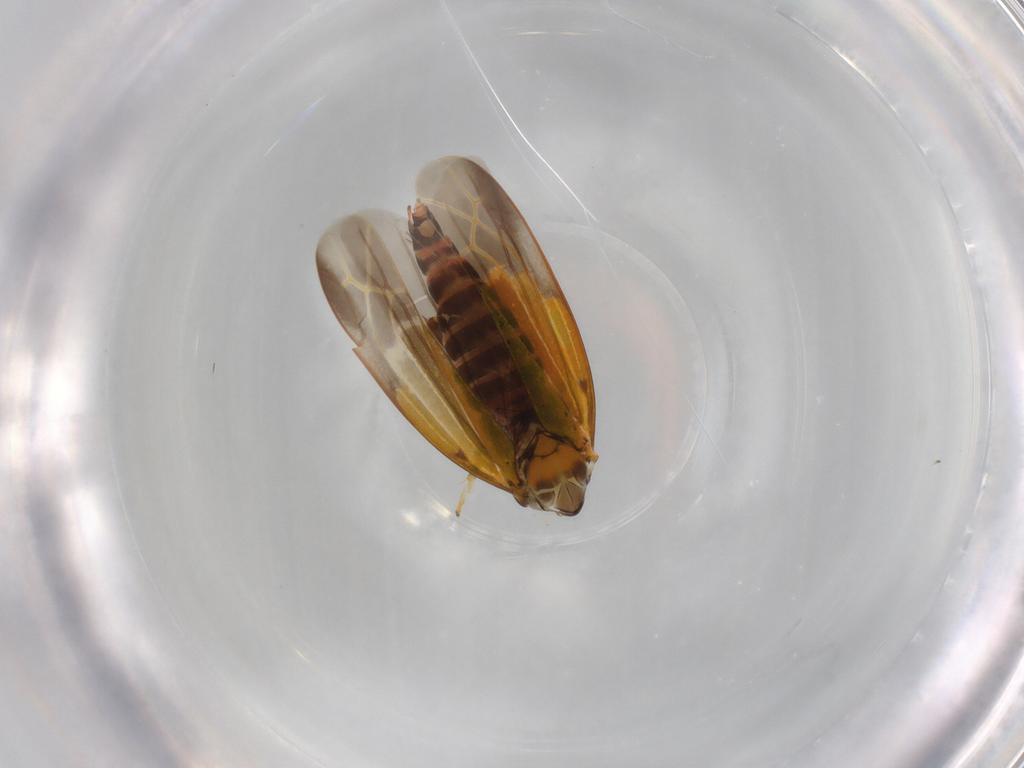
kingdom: Animalia
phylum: Arthropoda
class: Insecta
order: Hemiptera
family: Cicadellidae
